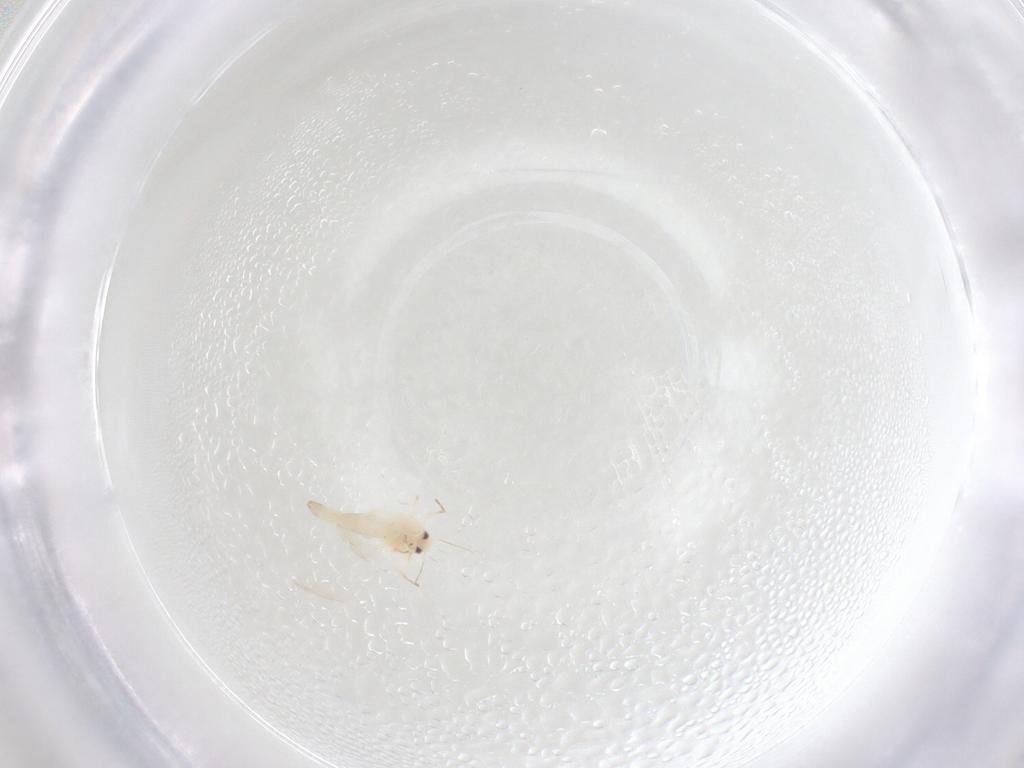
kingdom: Animalia
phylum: Arthropoda
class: Insecta
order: Hemiptera
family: Aleyrodidae
